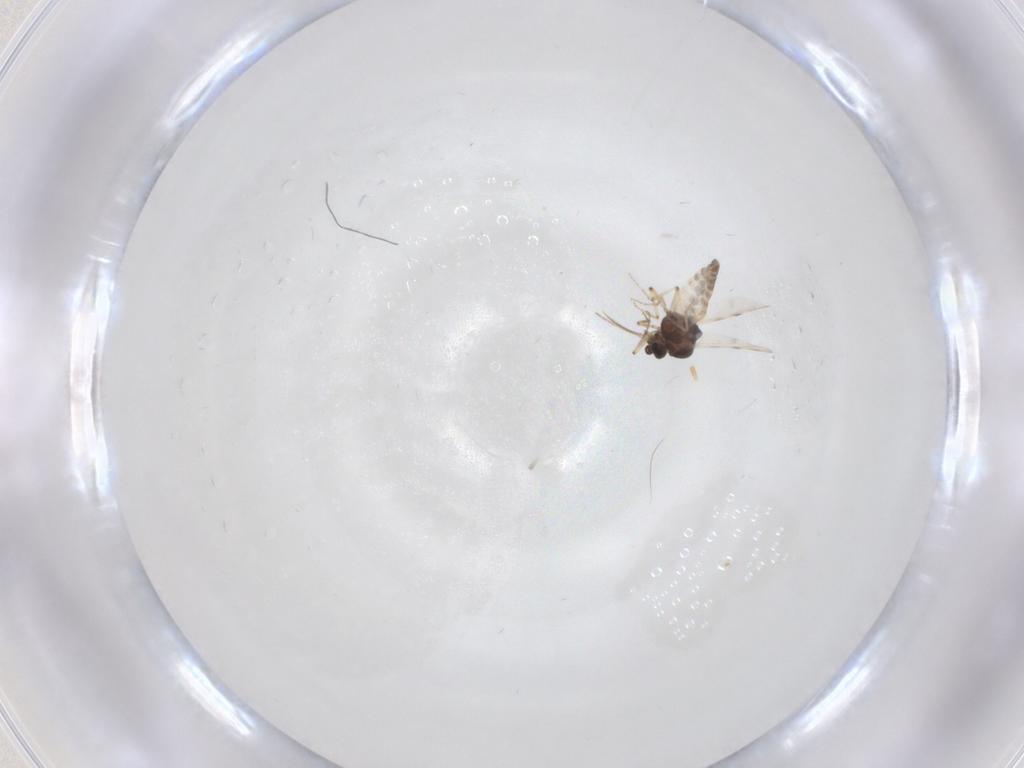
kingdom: Animalia
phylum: Arthropoda
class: Insecta
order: Diptera
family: Chironomidae
